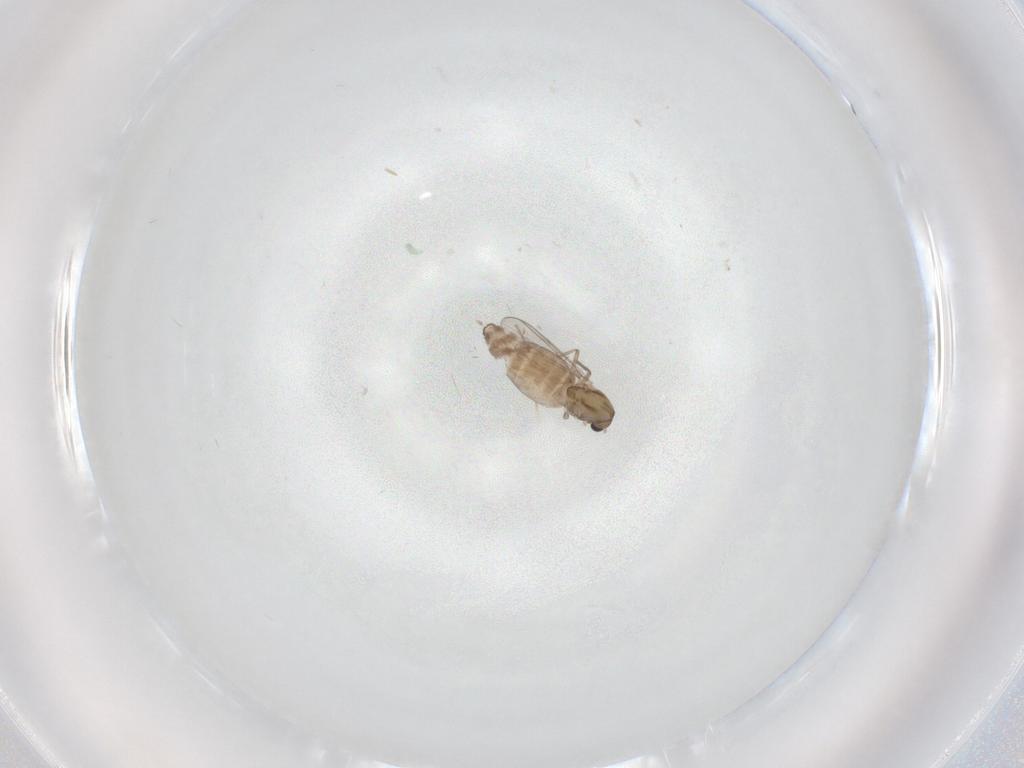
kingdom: Animalia
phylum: Arthropoda
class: Insecta
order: Diptera
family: Chironomidae
